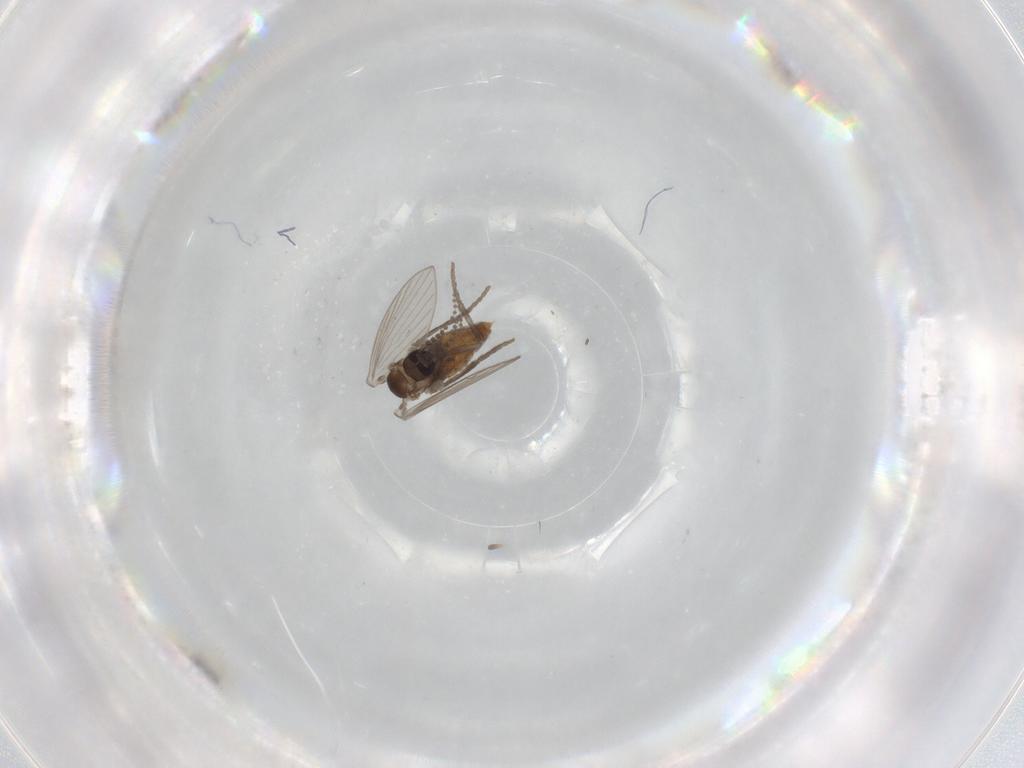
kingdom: Animalia
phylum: Arthropoda
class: Insecta
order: Diptera
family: Psychodidae
